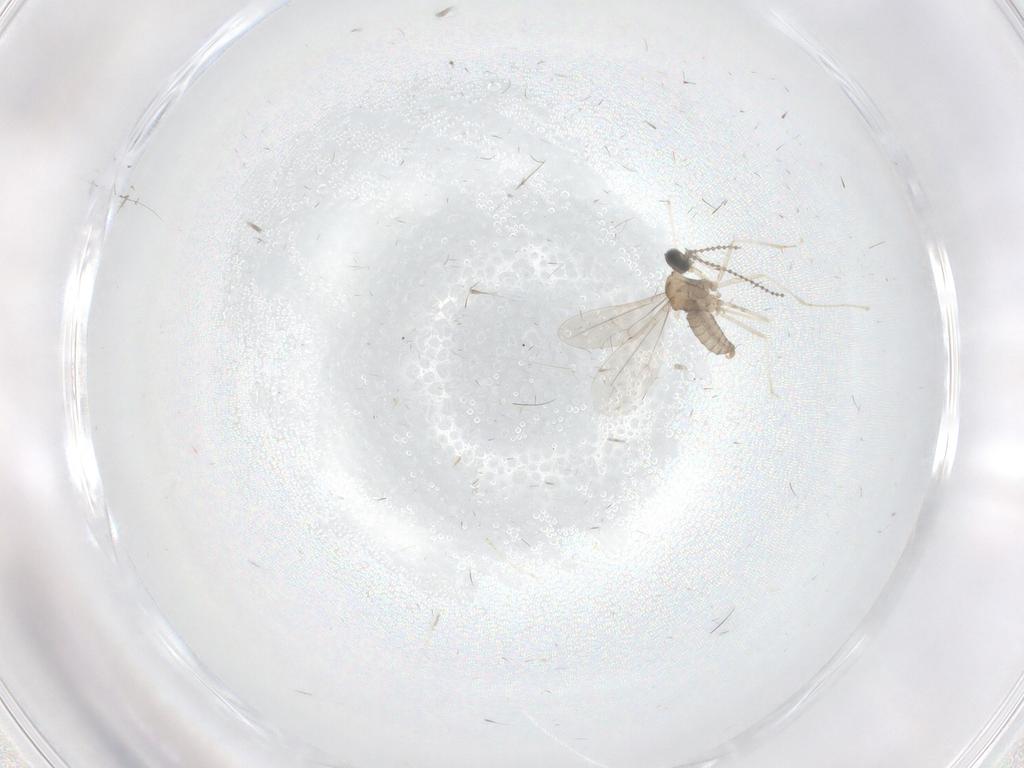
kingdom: Animalia
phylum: Arthropoda
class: Insecta
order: Diptera
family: Cecidomyiidae
